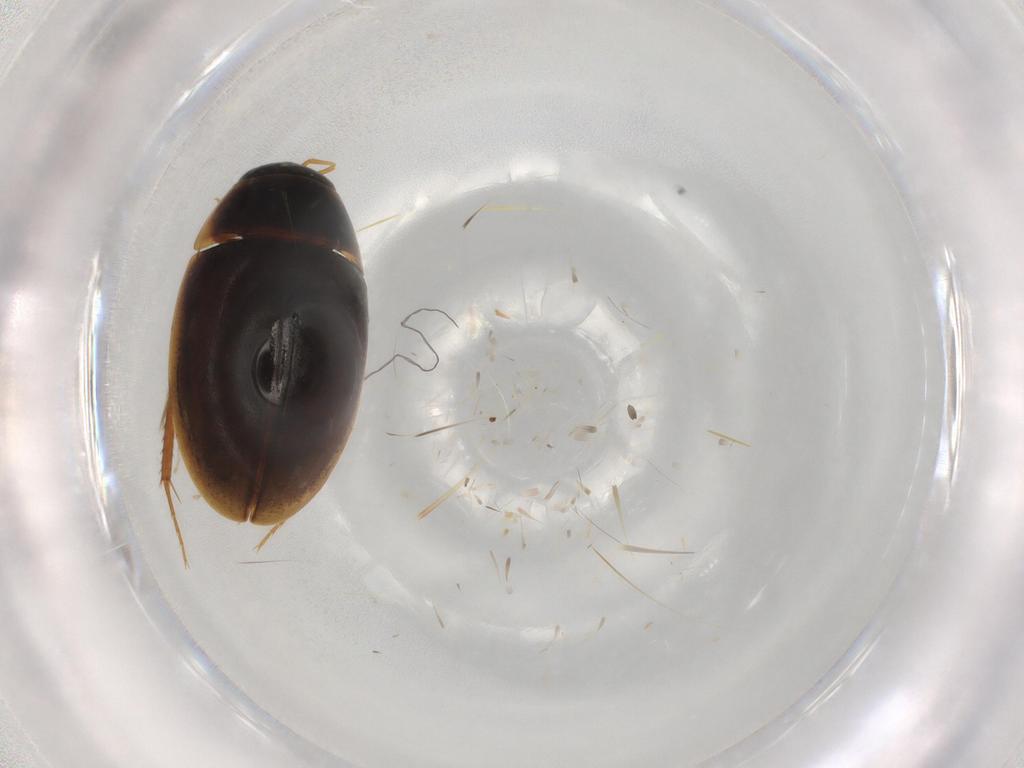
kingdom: Animalia
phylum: Arthropoda
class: Insecta
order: Coleoptera
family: Hydrophilidae
